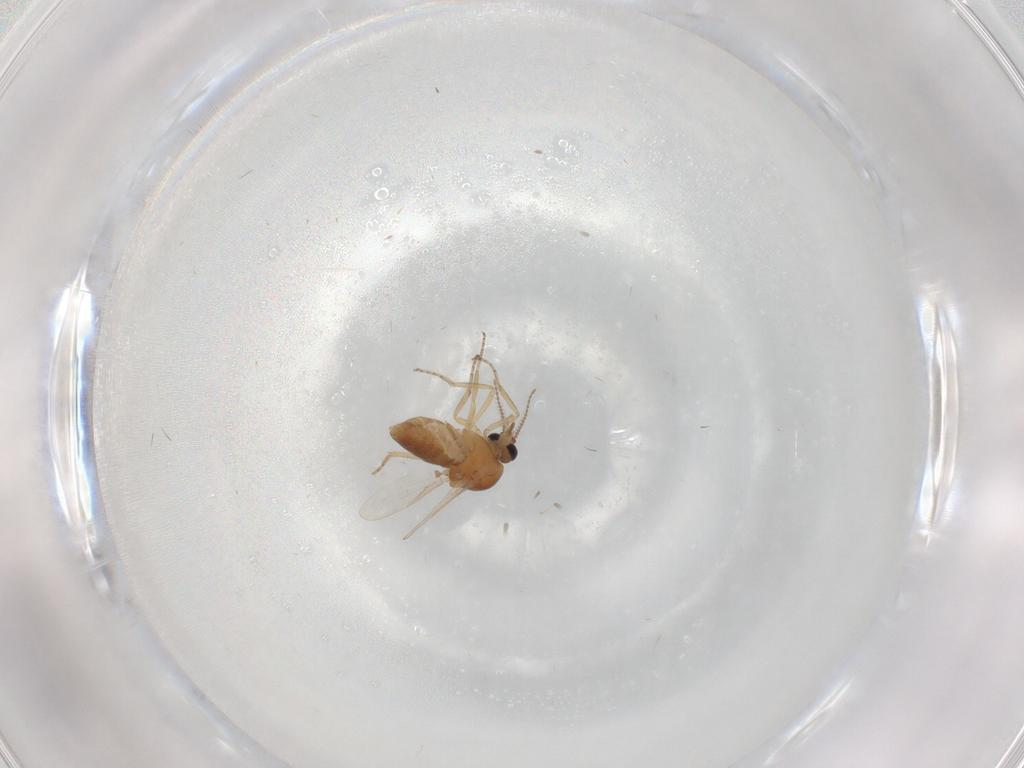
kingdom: Animalia
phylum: Arthropoda
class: Insecta
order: Diptera
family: Ceratopogonidae
